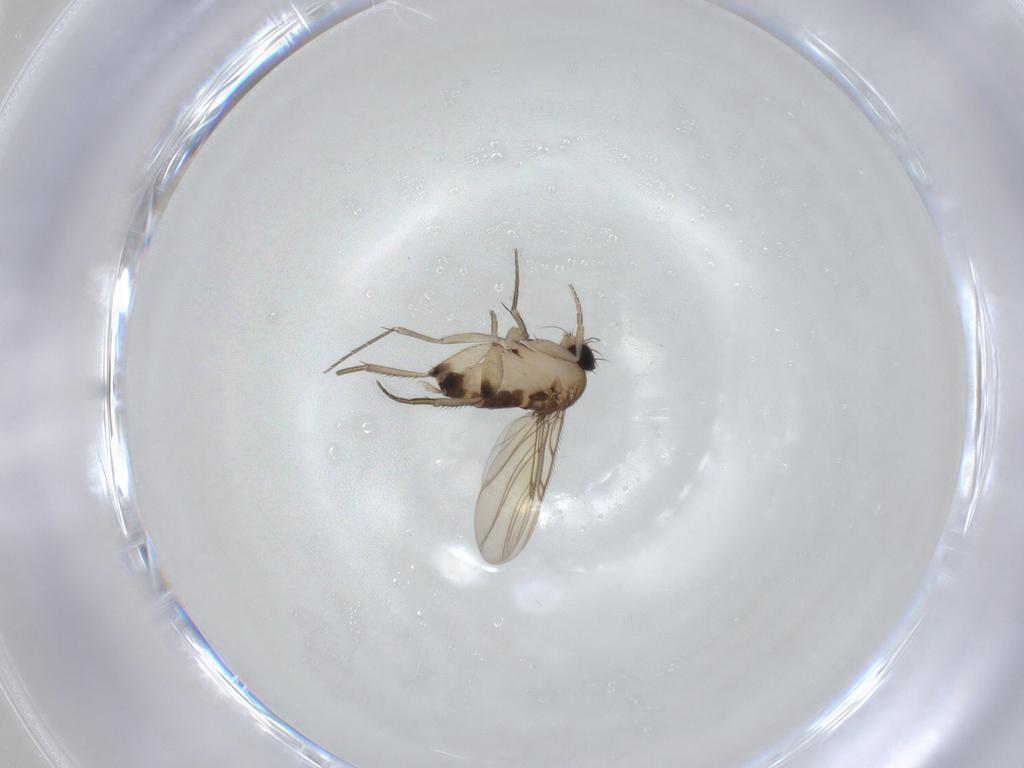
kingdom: Animalia
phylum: Arthropoda
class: Insecta
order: Diptera
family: Phoridae
